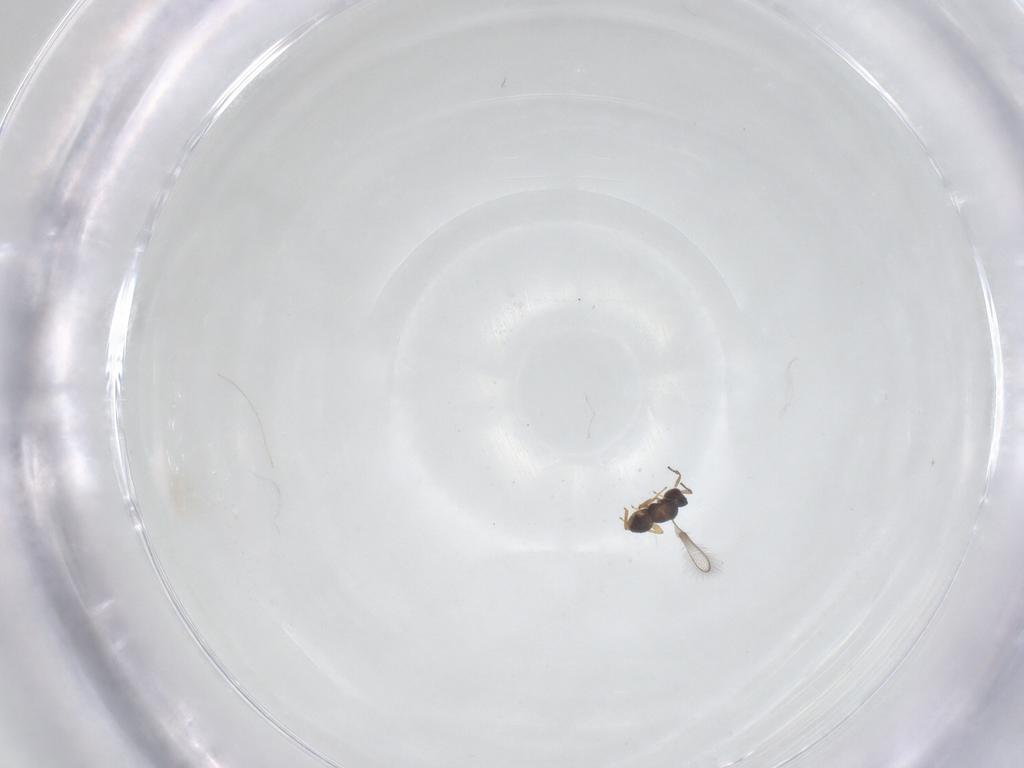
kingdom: Animalia
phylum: Arthropoda
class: Insecta
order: Hymenoptera
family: Mymaridae
